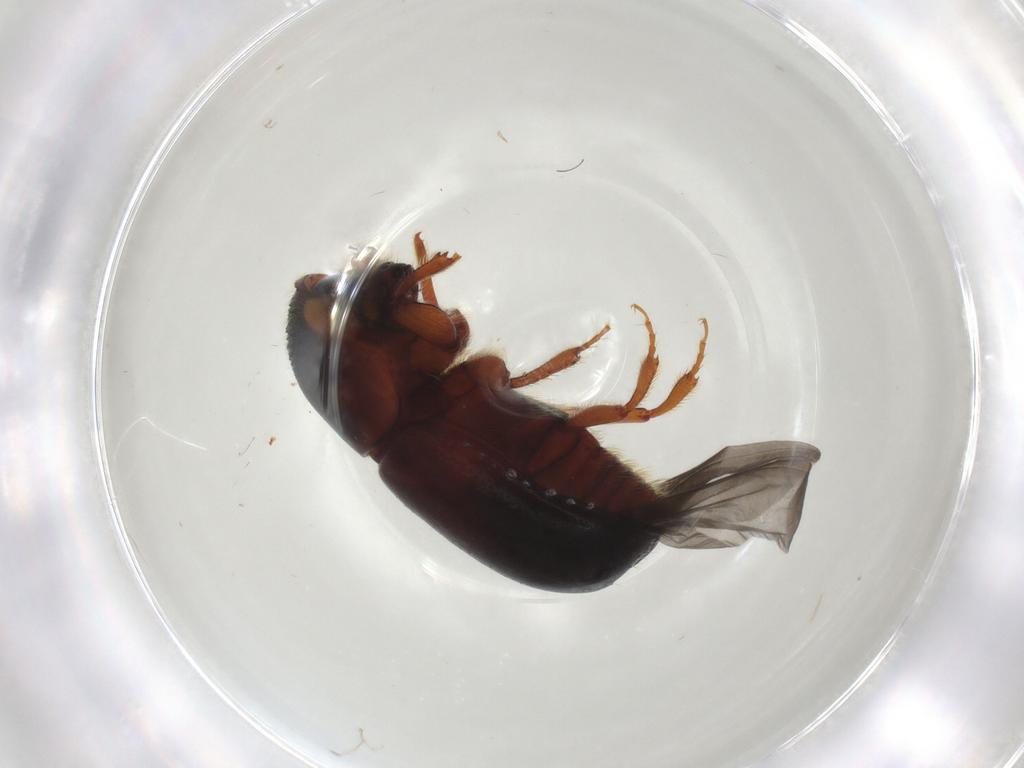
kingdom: Animalia
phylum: Arthropoda
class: Insecta
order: Coleoptera
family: Curculionidae
